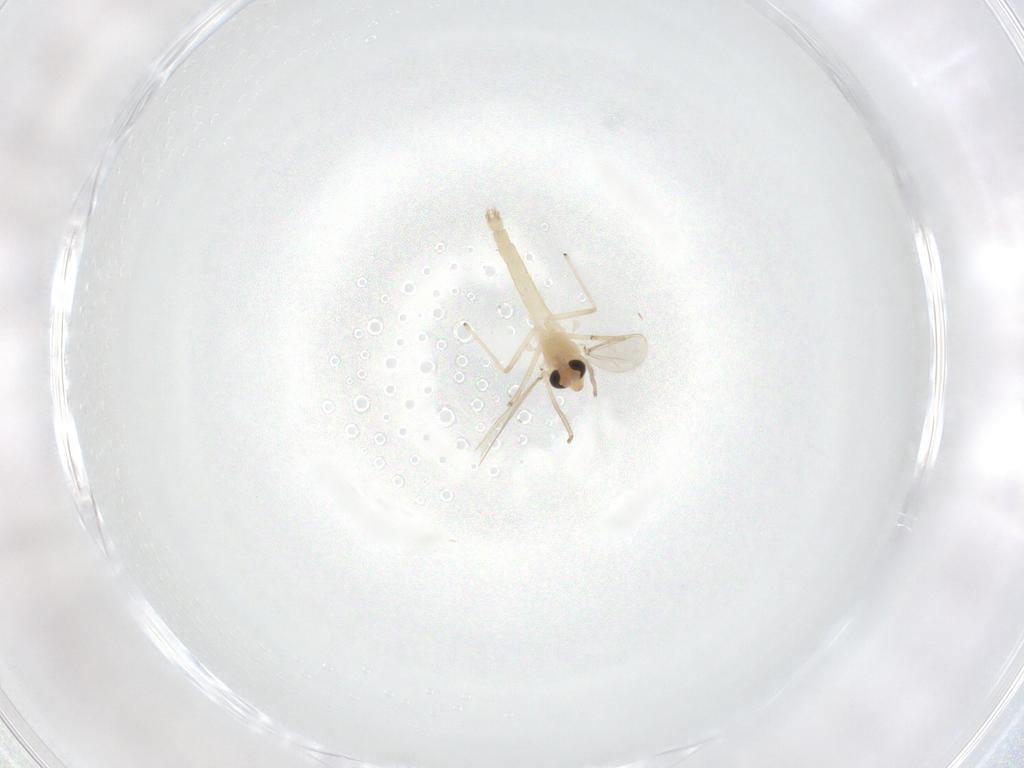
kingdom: Animalia
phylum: Arthropoda
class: Insecta
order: Diptera
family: Chironomidae
